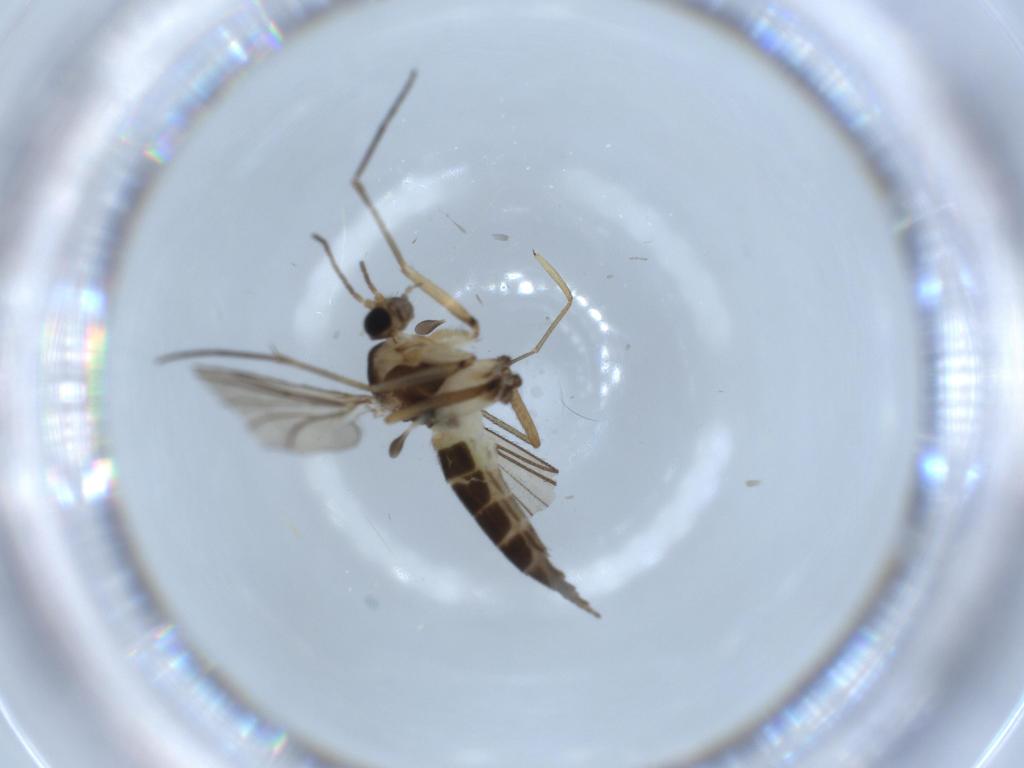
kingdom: Animalia
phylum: Arthropoda
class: Insecta
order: Diptera
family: Sciaridae
